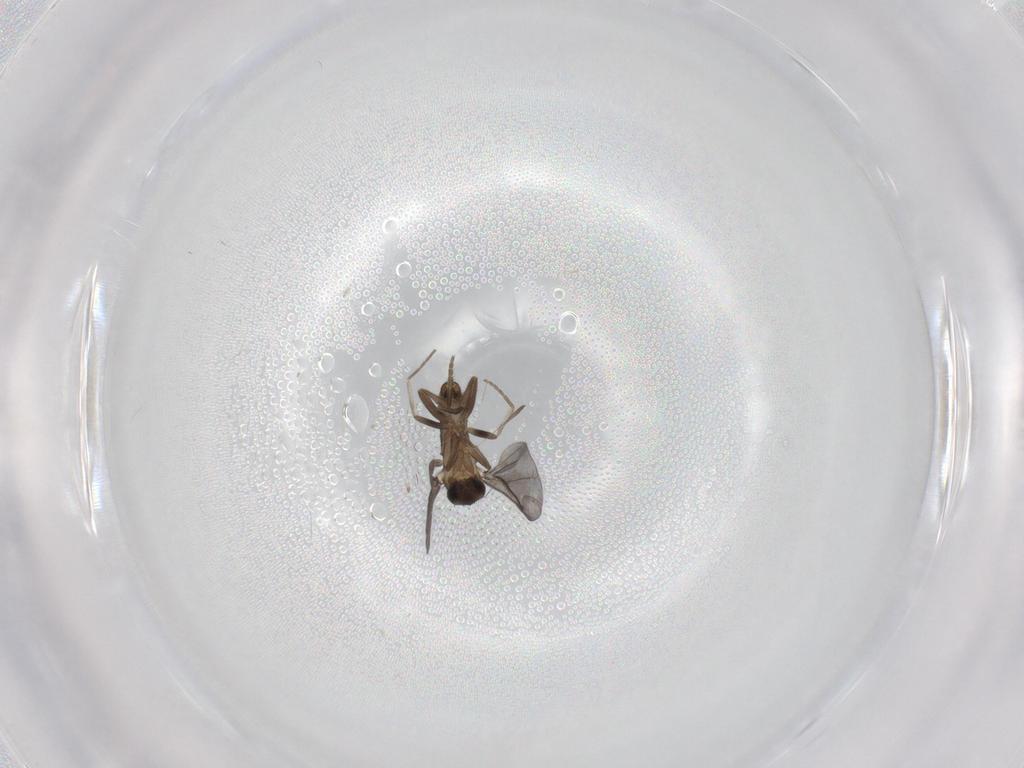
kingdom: Animalia
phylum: Arthropoda
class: Insecta
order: Diptera
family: Phoridae
